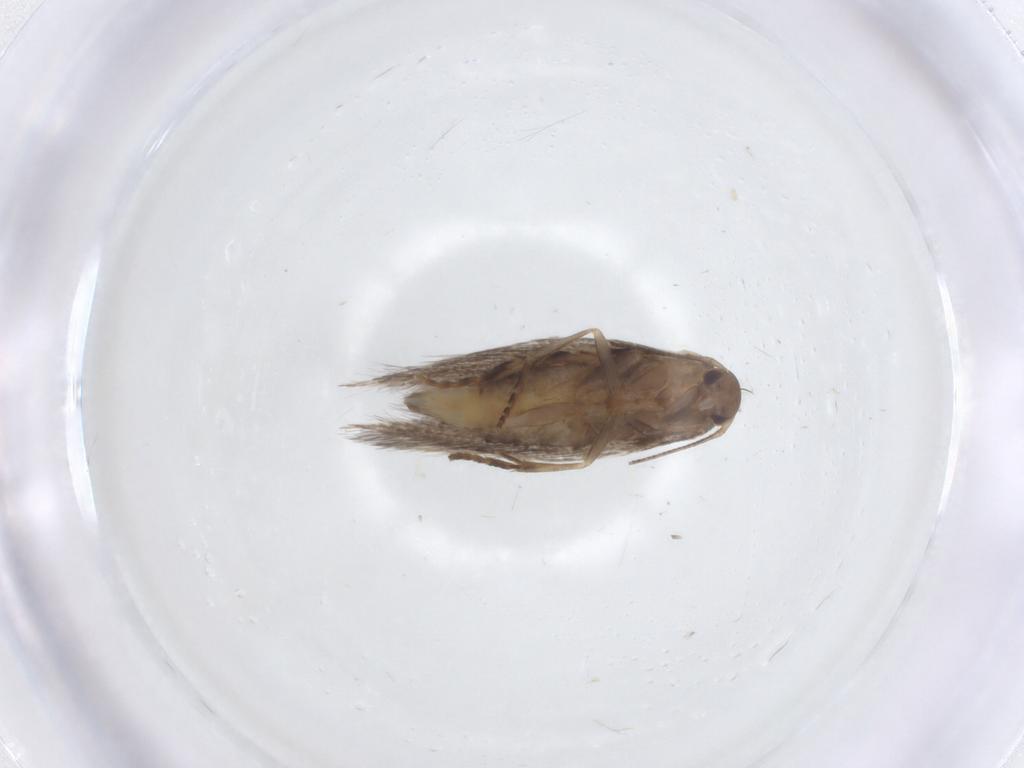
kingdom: Animalia
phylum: Arthropoda
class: Insecta
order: Lepidoptera
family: Elachistidae
